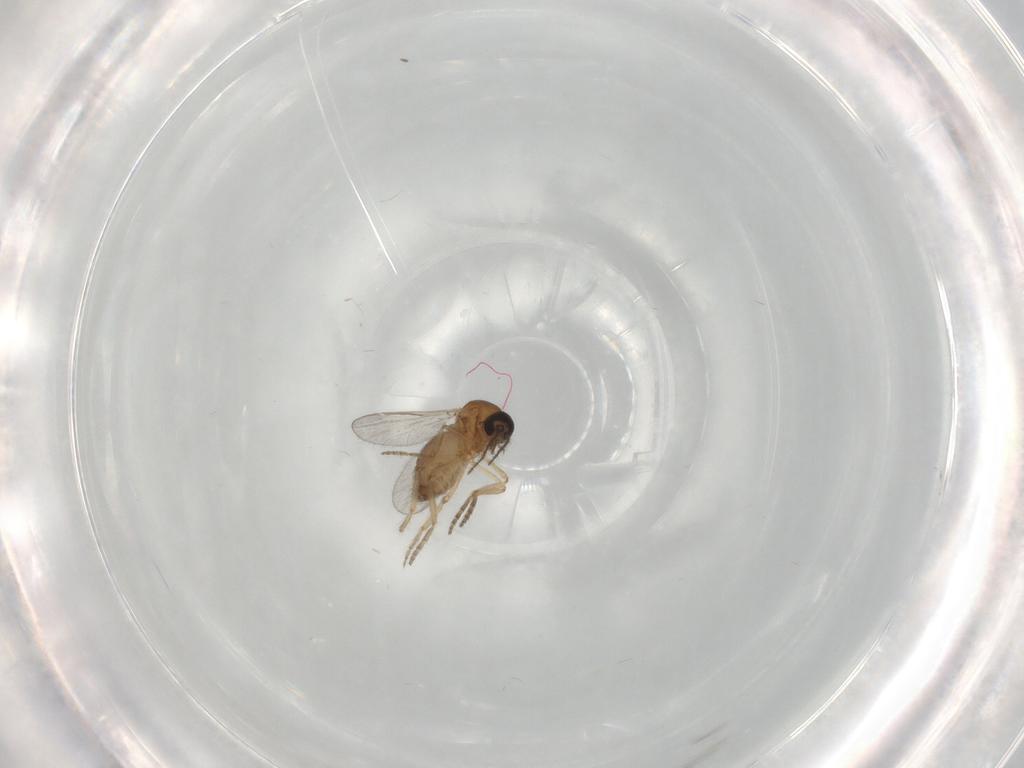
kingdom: Animalia
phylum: Arthropoda
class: Insecta
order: Diptera
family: Ceratopogonidae
